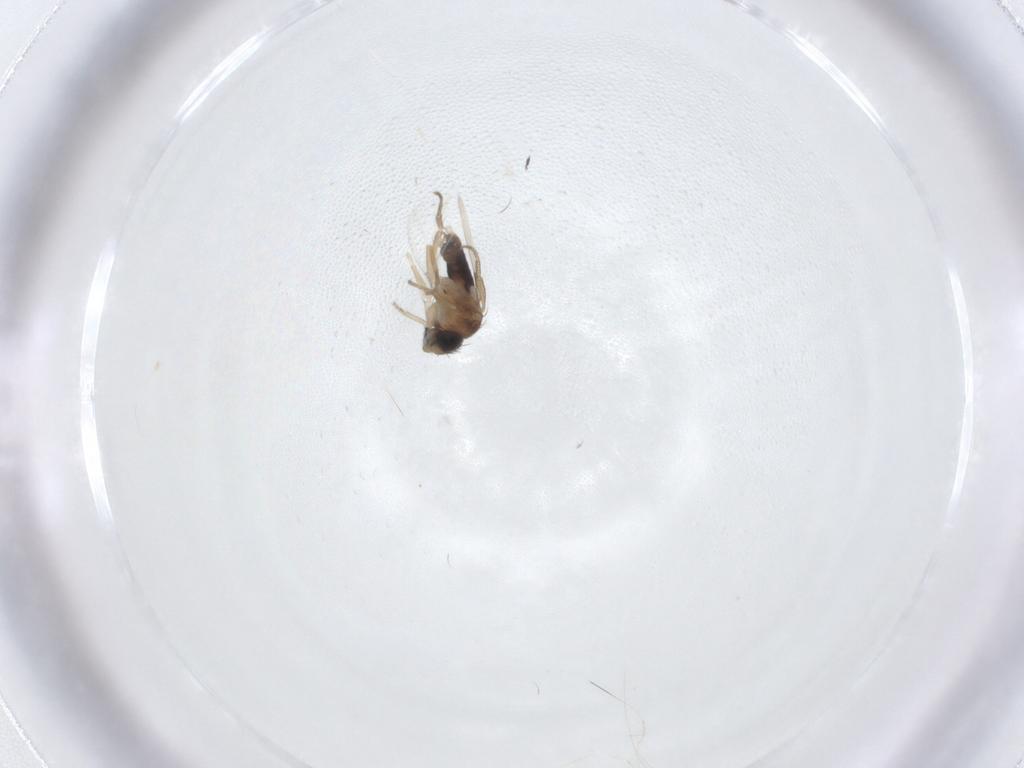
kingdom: Animalia
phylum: Arthropoda
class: Insecta
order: Diptera
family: Ceratopogonidae
